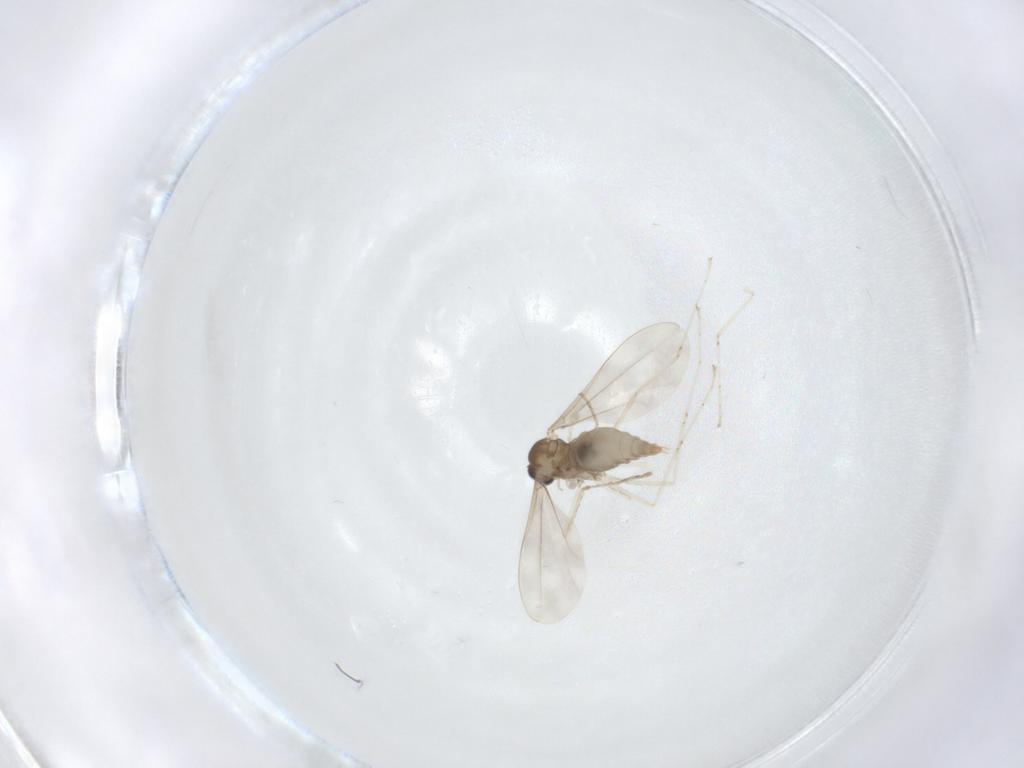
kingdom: Animalia
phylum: Arthropoda
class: Insecta
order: Diptera
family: Cecidomyiidae
